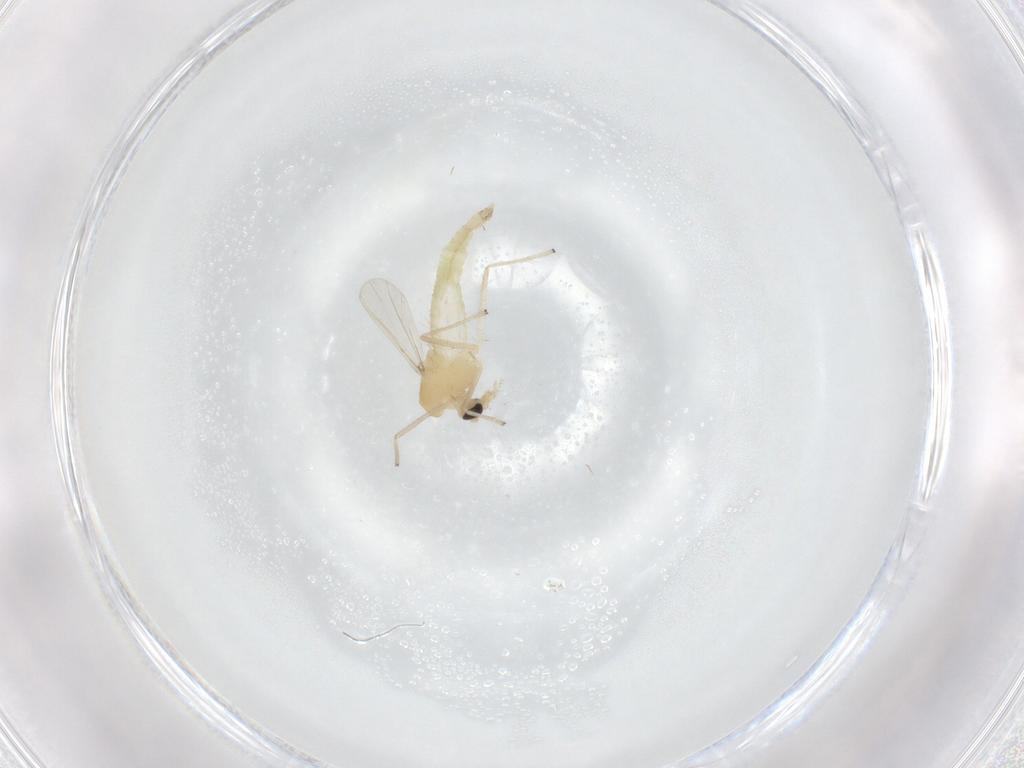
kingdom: Animalia
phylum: Arthropoda
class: Insecta
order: Diptera
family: Chironomidae
